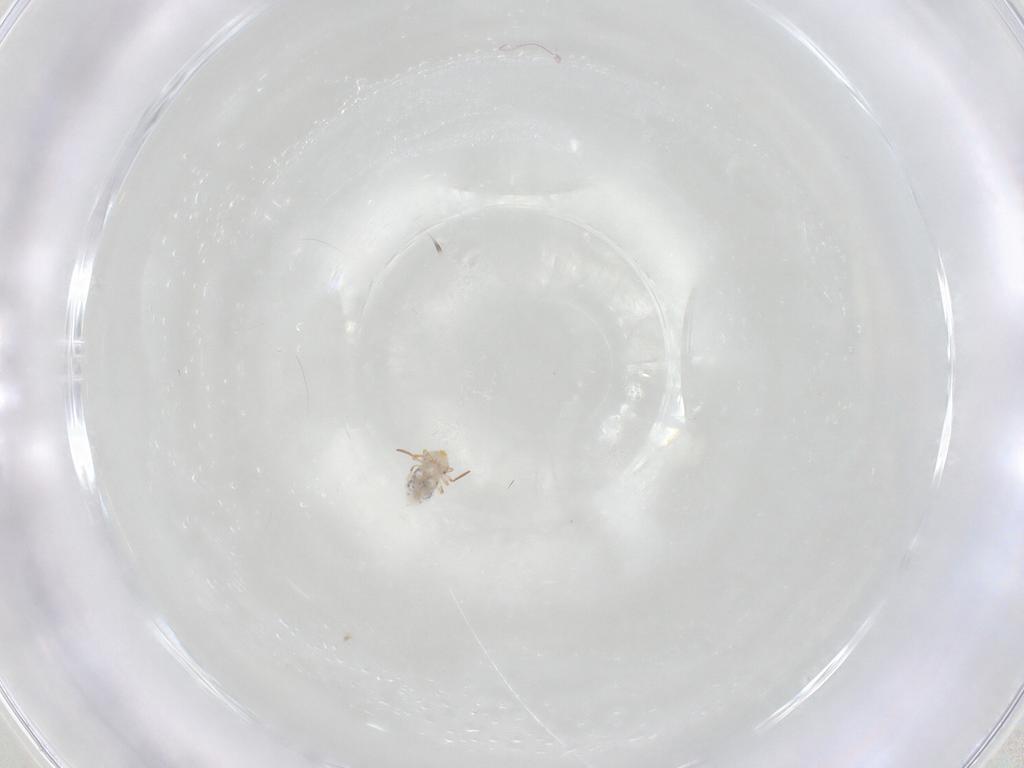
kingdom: Animalia
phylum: Arthropoda
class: Collembola
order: Symphypleona
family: Bourletiellidae
